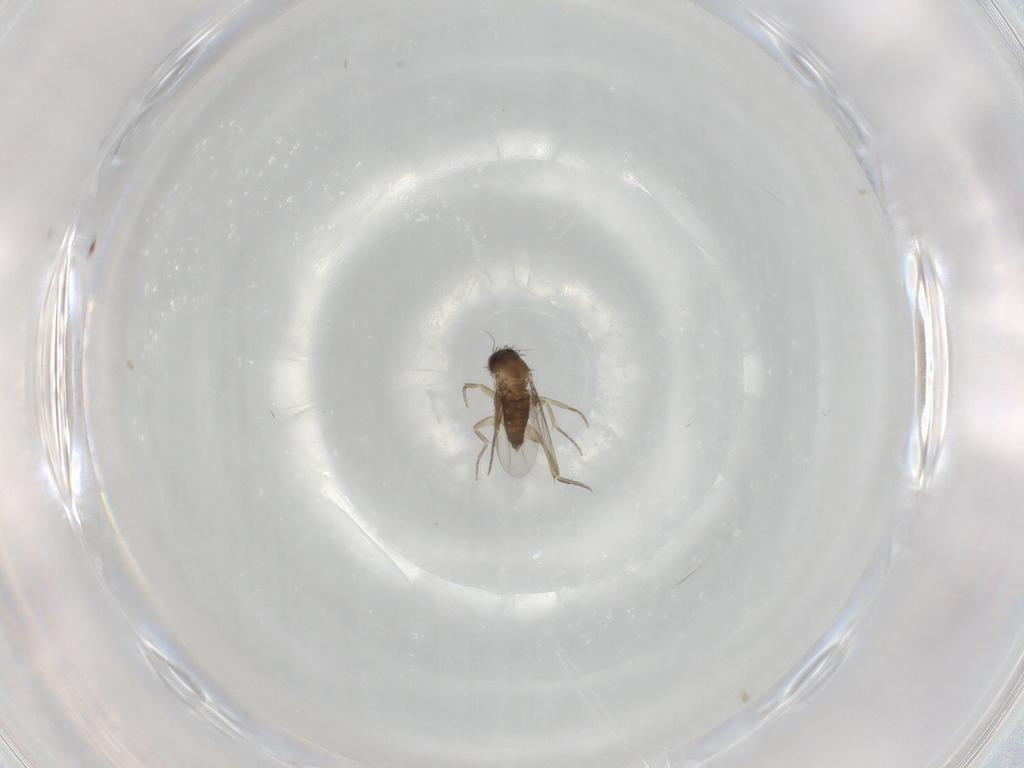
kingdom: Animalia
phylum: Arthropoda
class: Insecta
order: Diptera
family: Phoridae
